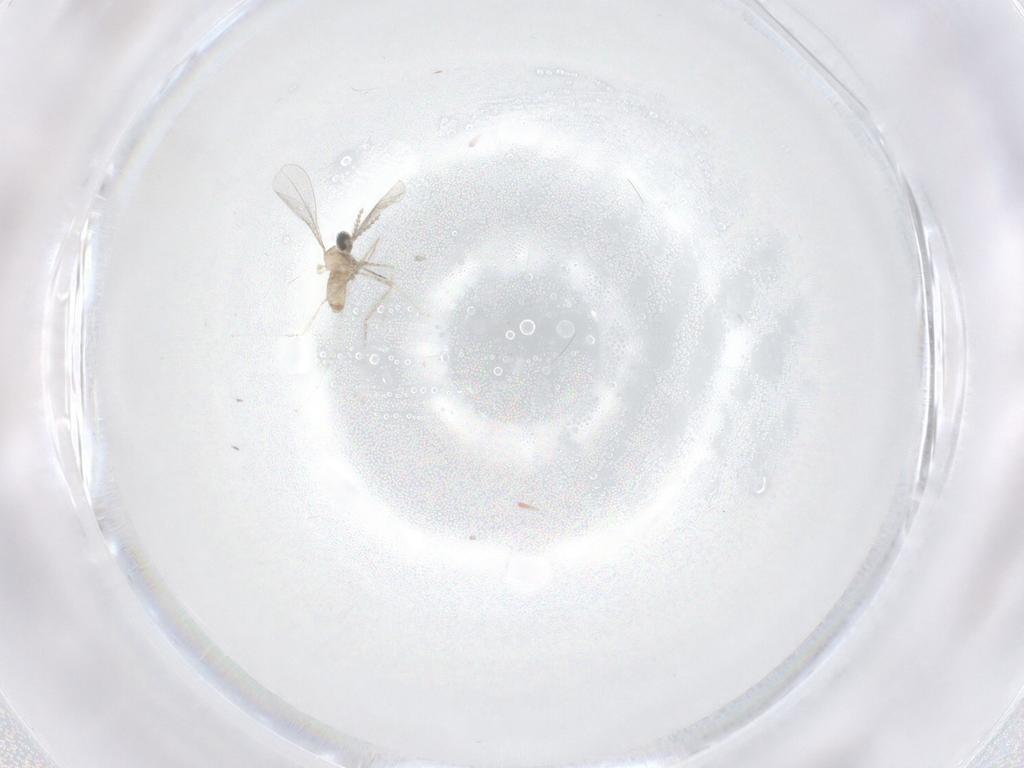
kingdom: Animalia
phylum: Arthropoda
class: Insecta
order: Diptera
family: Cecidomyiidae
